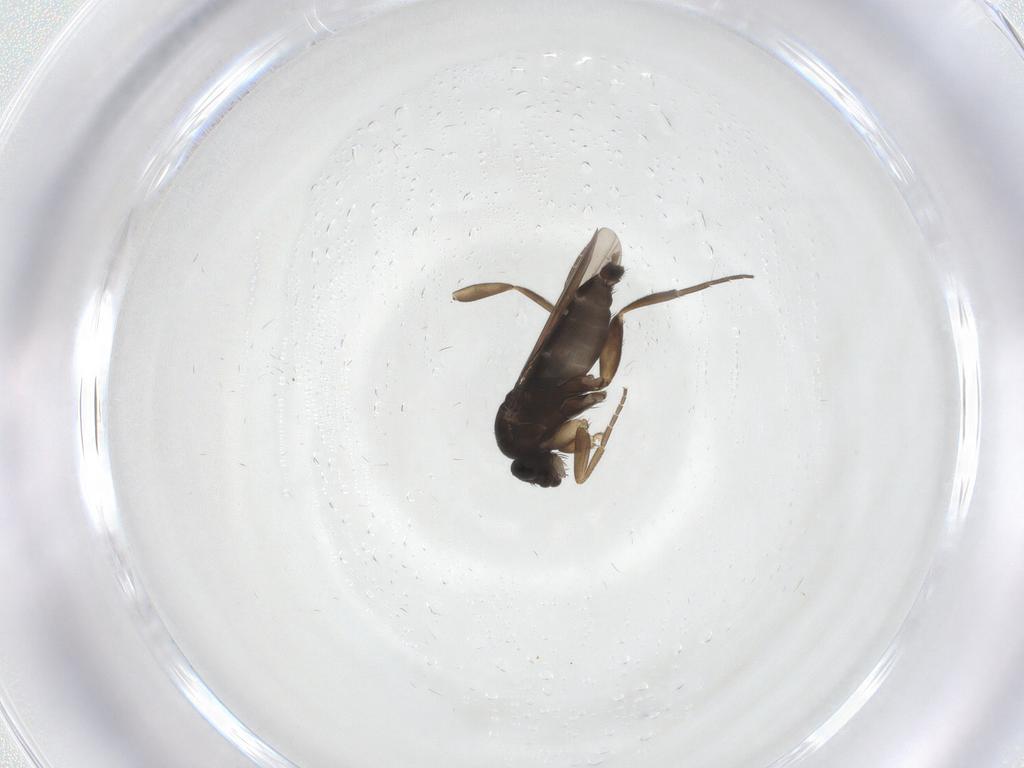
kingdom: Animalia
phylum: Arthropoda
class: Insecta
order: Diptera
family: Phoridae
